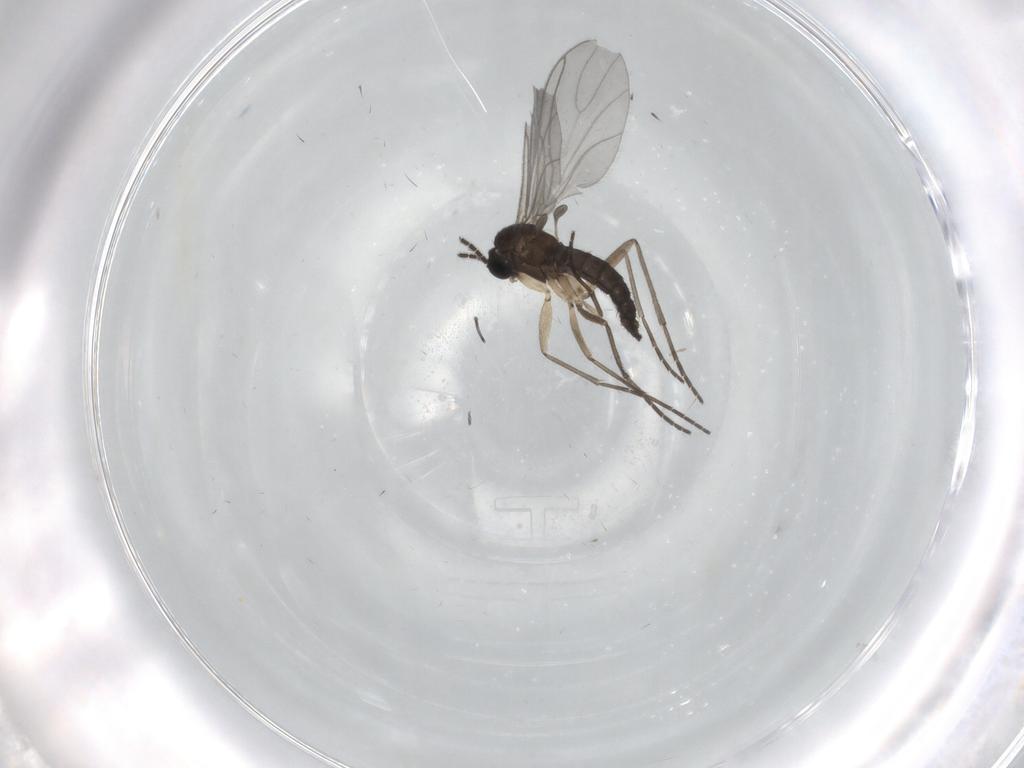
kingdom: Animalia
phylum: Arthropoda
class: Insecta
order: Diptera
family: Sciaridae
